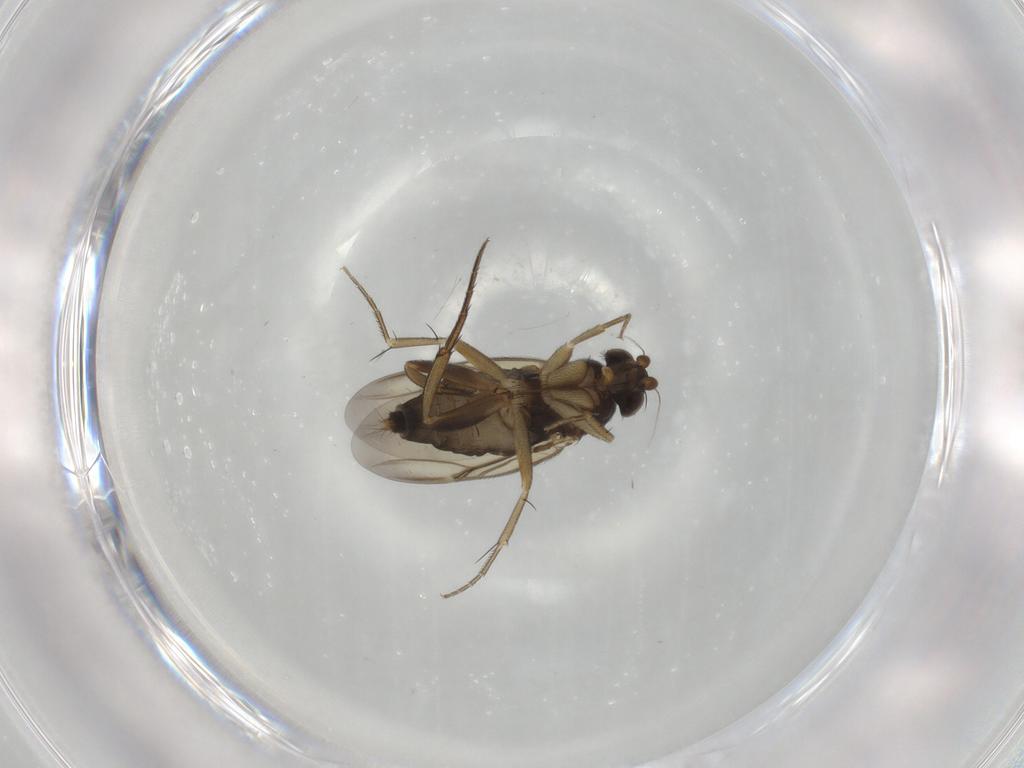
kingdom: Animalia
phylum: Arthropoda
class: Insecta
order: Diptera
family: Phoridae
